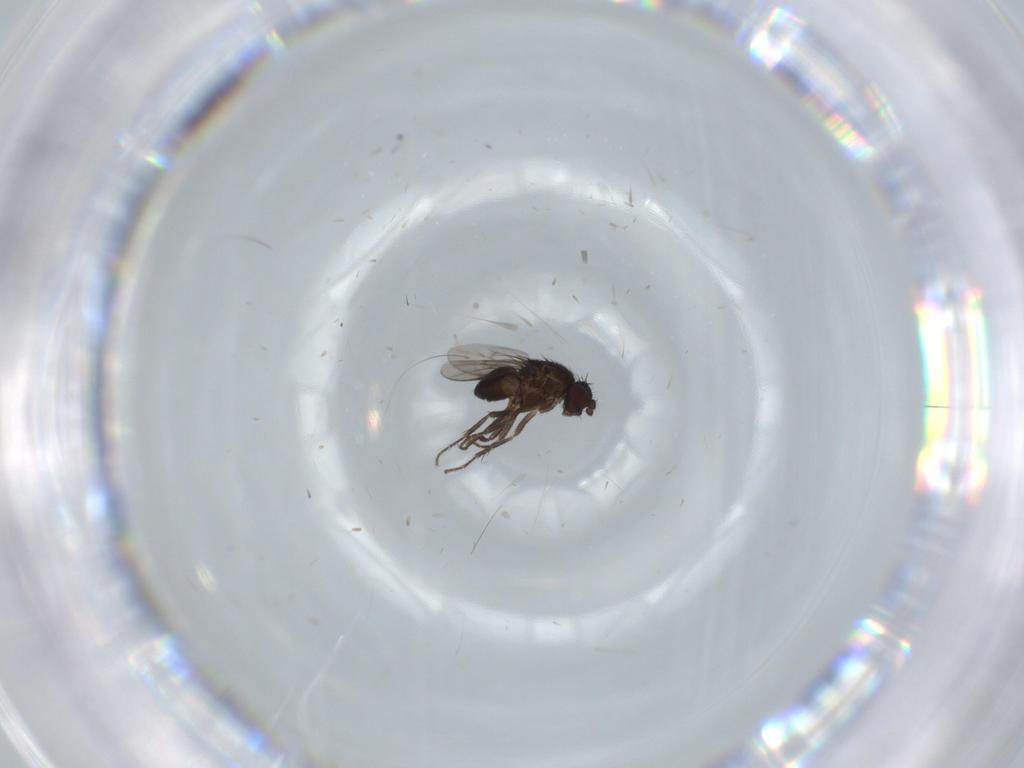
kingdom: Animalia
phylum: Arthropoda
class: Insecta
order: Diptera
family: Sphaeroceridae
